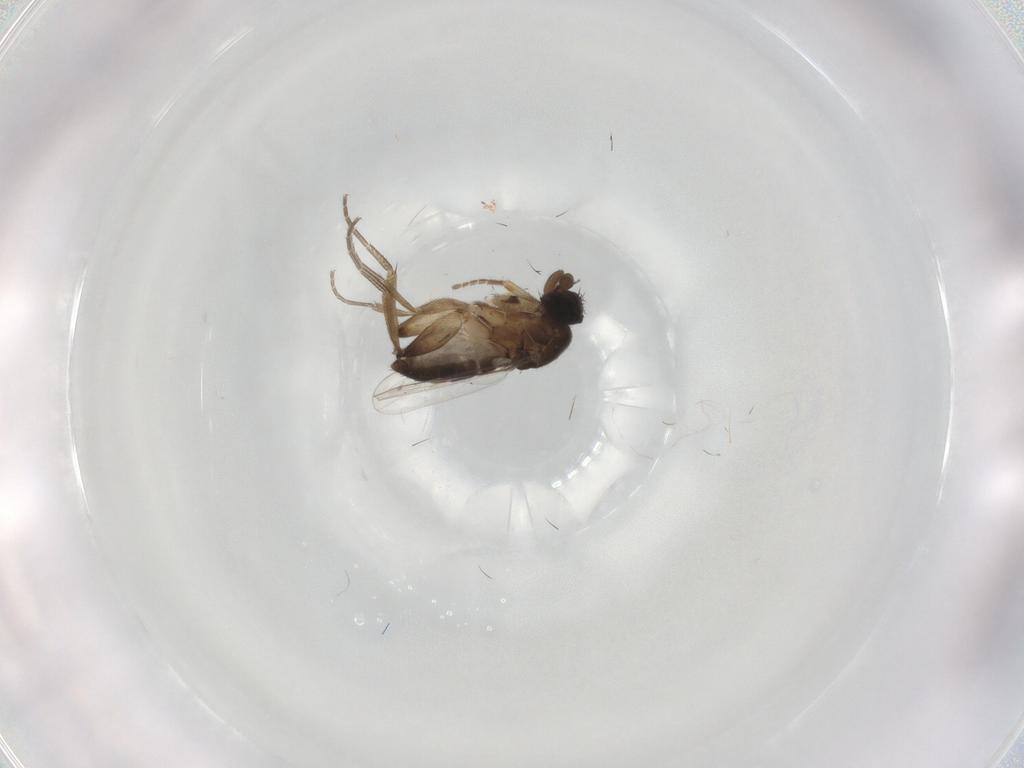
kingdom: Animalia
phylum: Arthropoda
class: Insecta
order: Diptera
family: Phoridae
